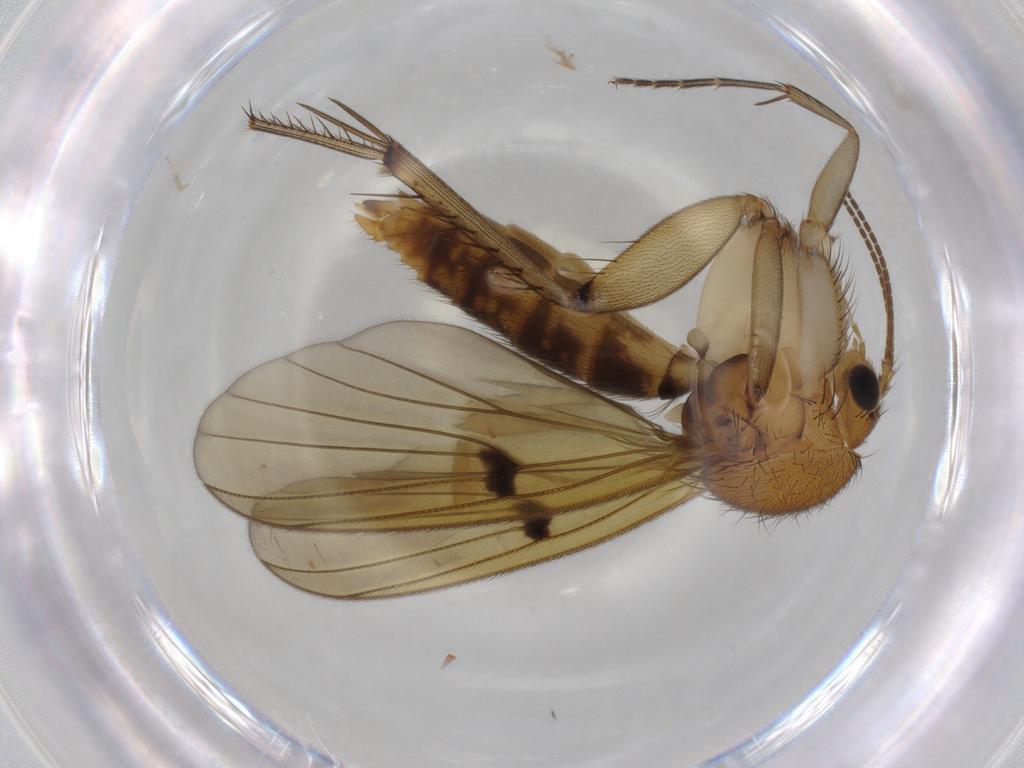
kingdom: Animalia
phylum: Arthropoda
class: Insecta
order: Diptera
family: Mycetophilidae
